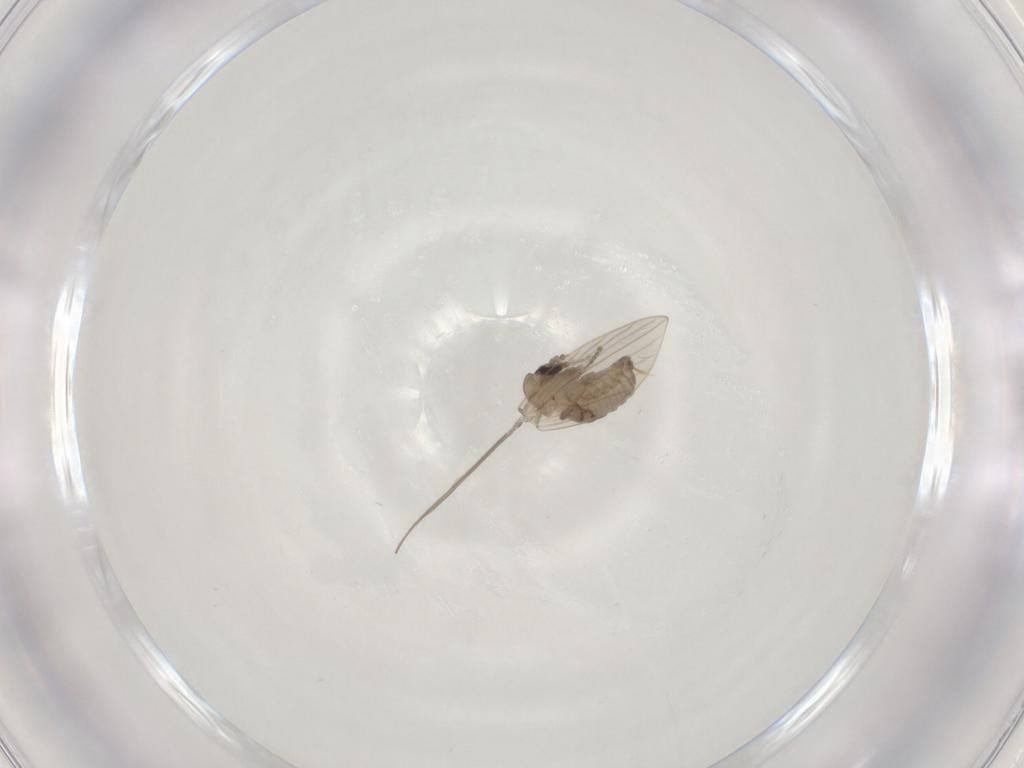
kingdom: Animalia
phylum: Arthropoda
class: Insecta
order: Diptera
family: Psychodidae
